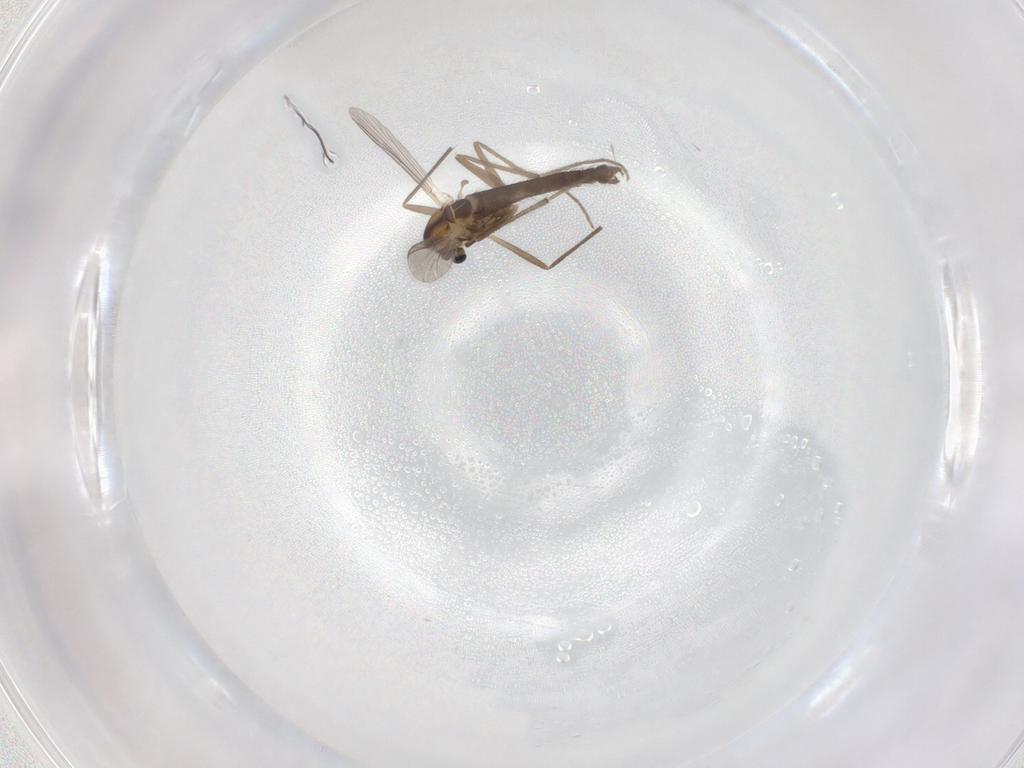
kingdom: Animalia
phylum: Arthropoda
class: Insecta
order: Diptera
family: Chironomidae
